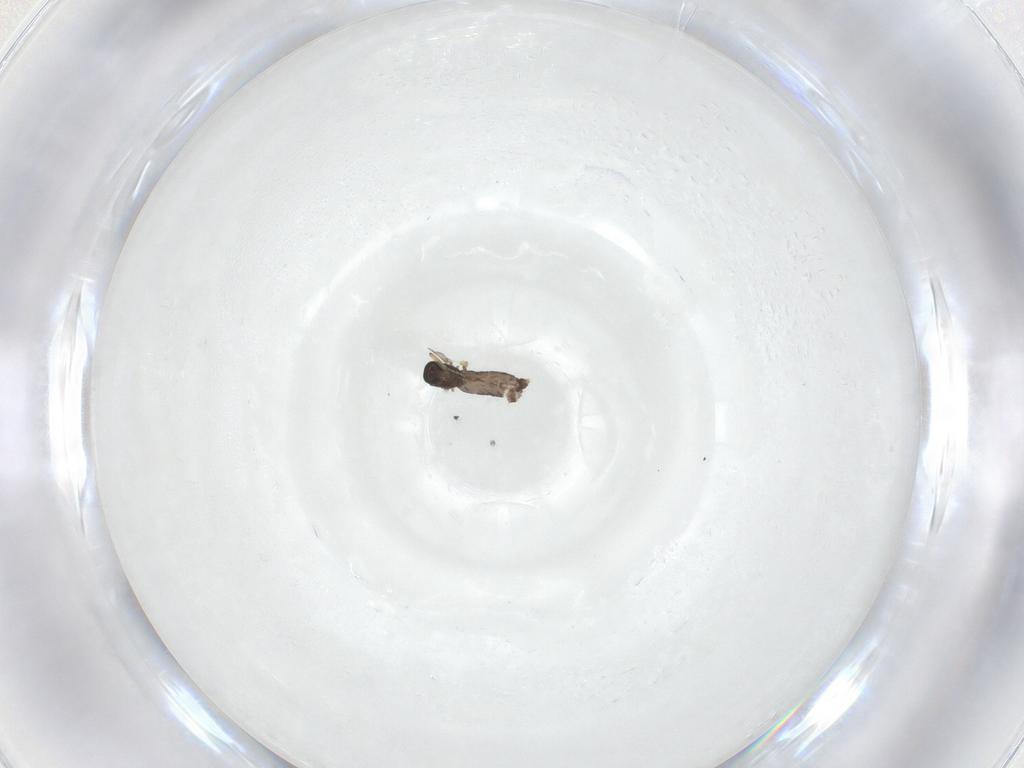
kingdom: Animalia
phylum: Arthropoda
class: Insecta
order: Diptera
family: Ceratopogonidae
